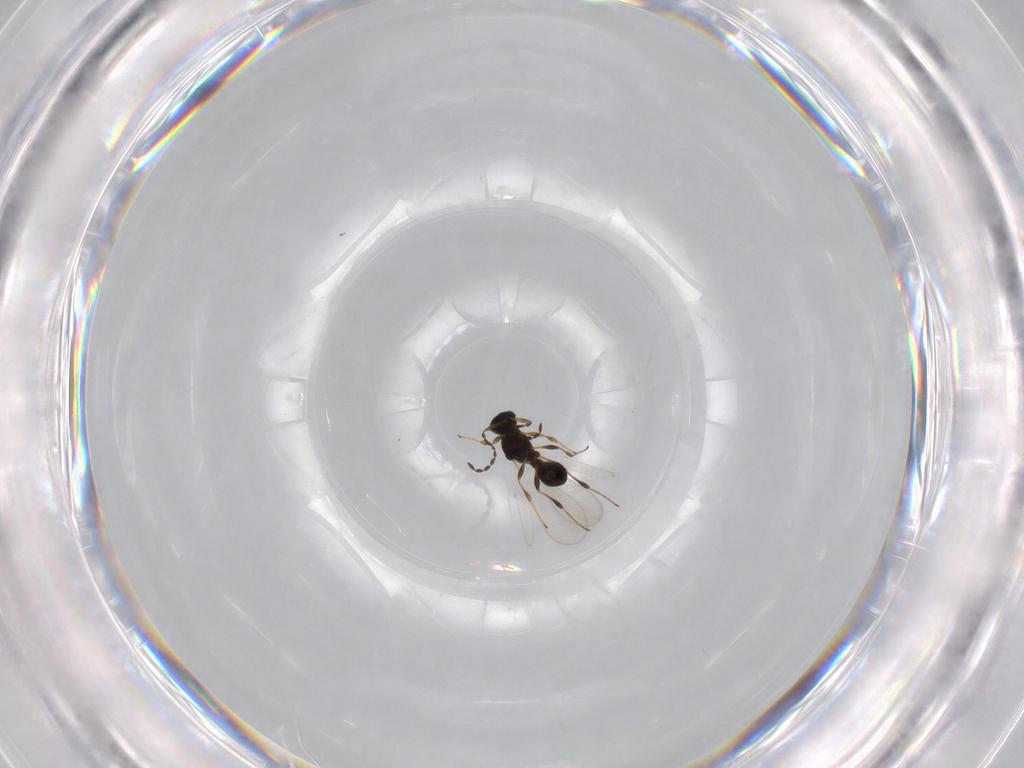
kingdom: Animalia
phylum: Arthropoda
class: Insecta
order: Hymenoptera
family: Platygastridae
